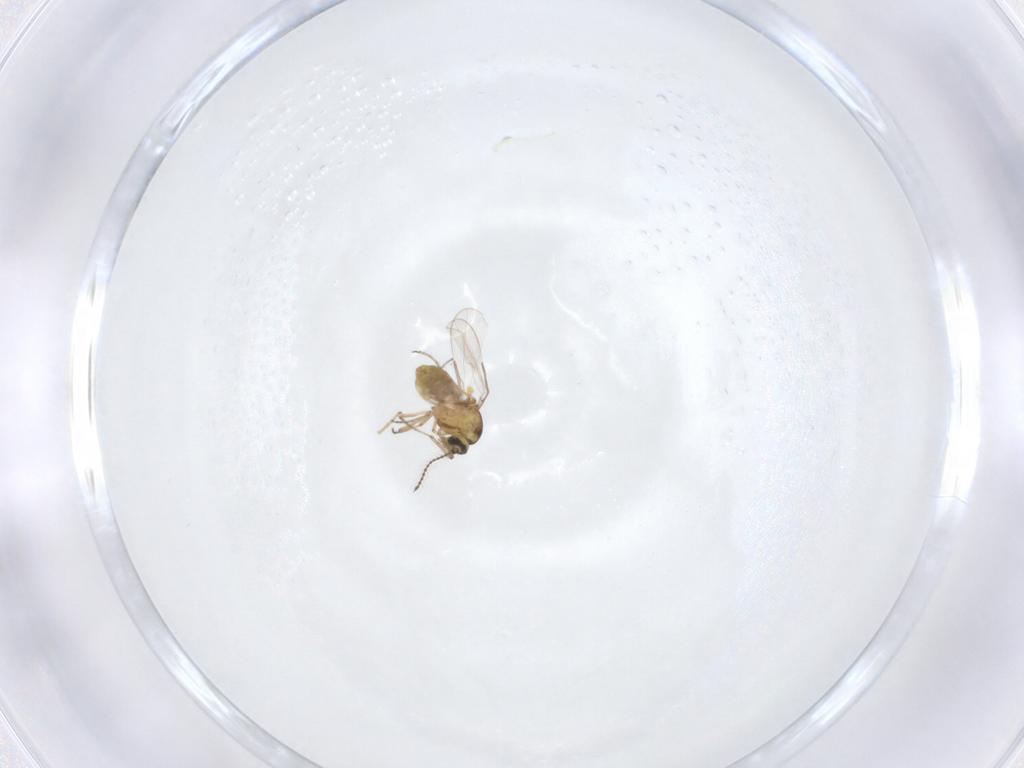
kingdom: Animalia
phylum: Arthropoda
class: Insecta
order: Diptera
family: Ceratopogonidae
